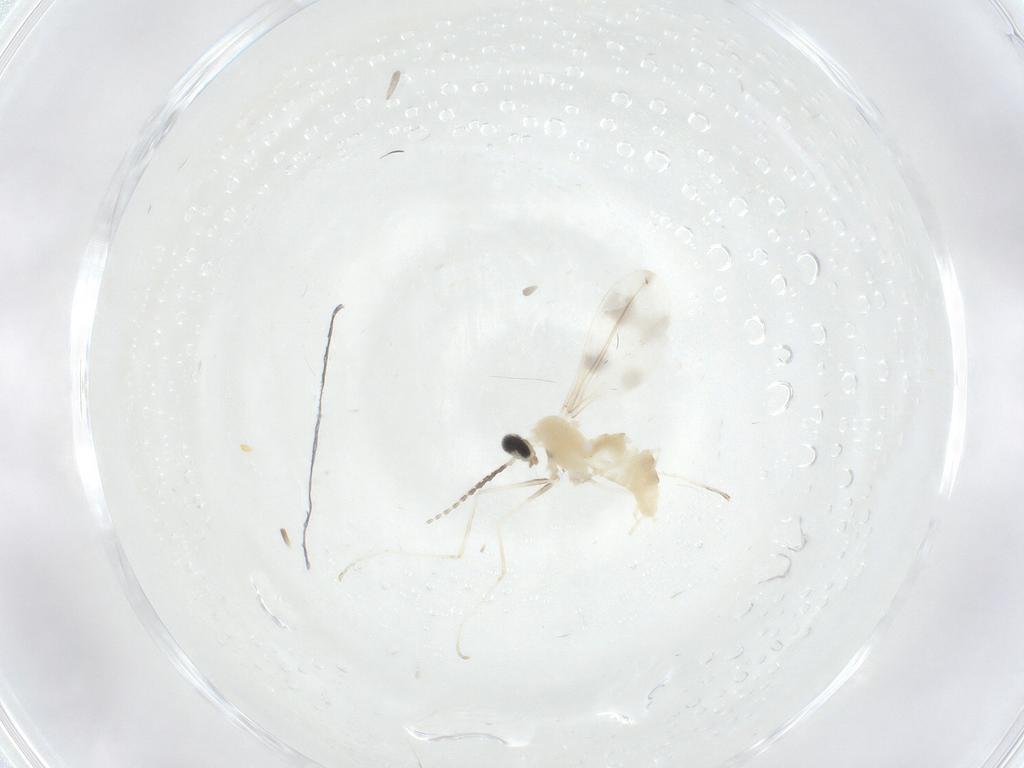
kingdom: Animalia
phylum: Arthropoda
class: Insecta
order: Diptera
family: Cecidomyiidae
